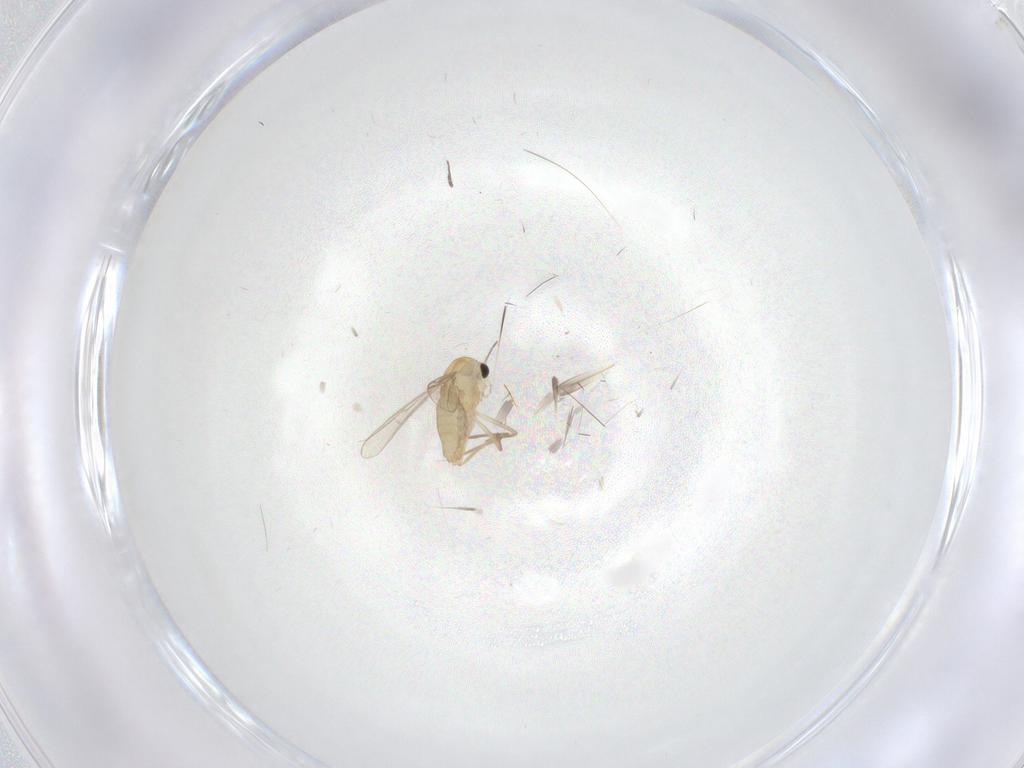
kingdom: Animalia
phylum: Arthropoda
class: Insecta
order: Diptera
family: Chironomidae
